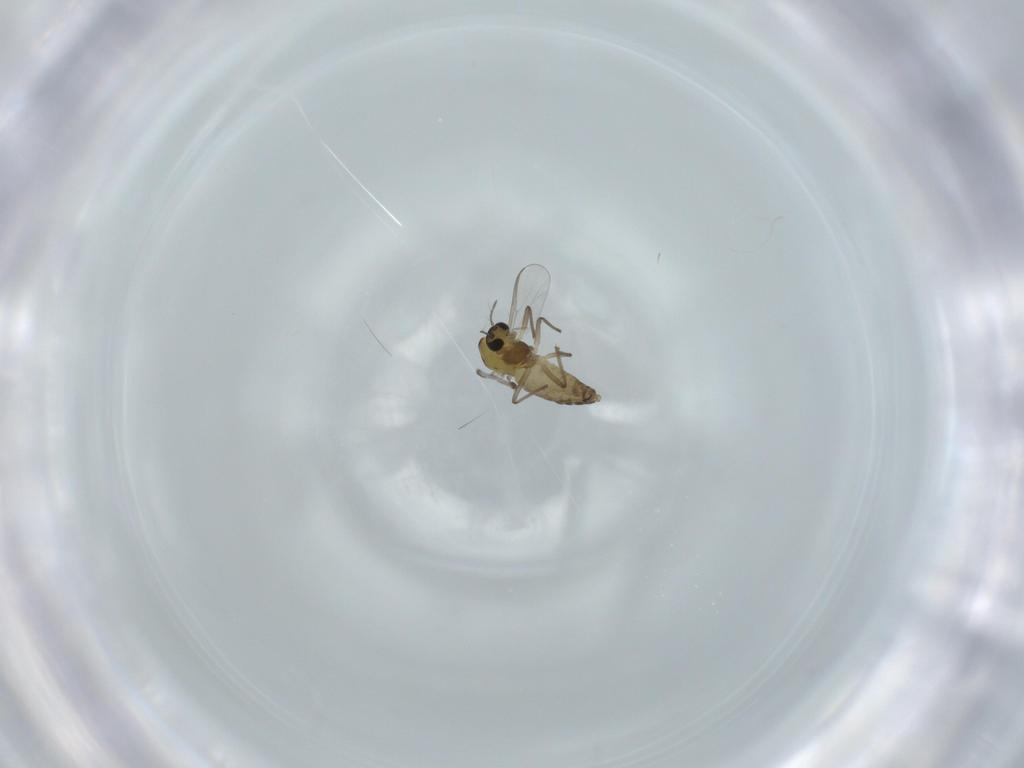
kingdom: Animalia
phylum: Arthropoda
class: Insecta
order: Diptera
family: Chironomidae
